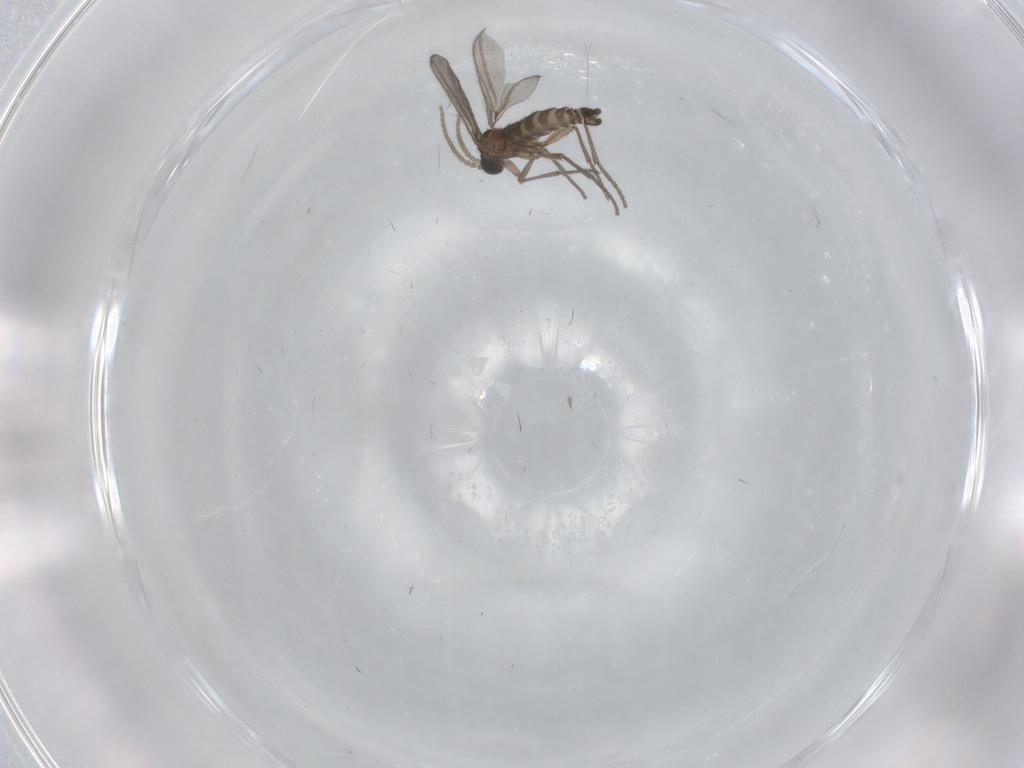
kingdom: Animalia
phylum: Arthropoda
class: Insecta
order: Diptera
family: Sciaridae
